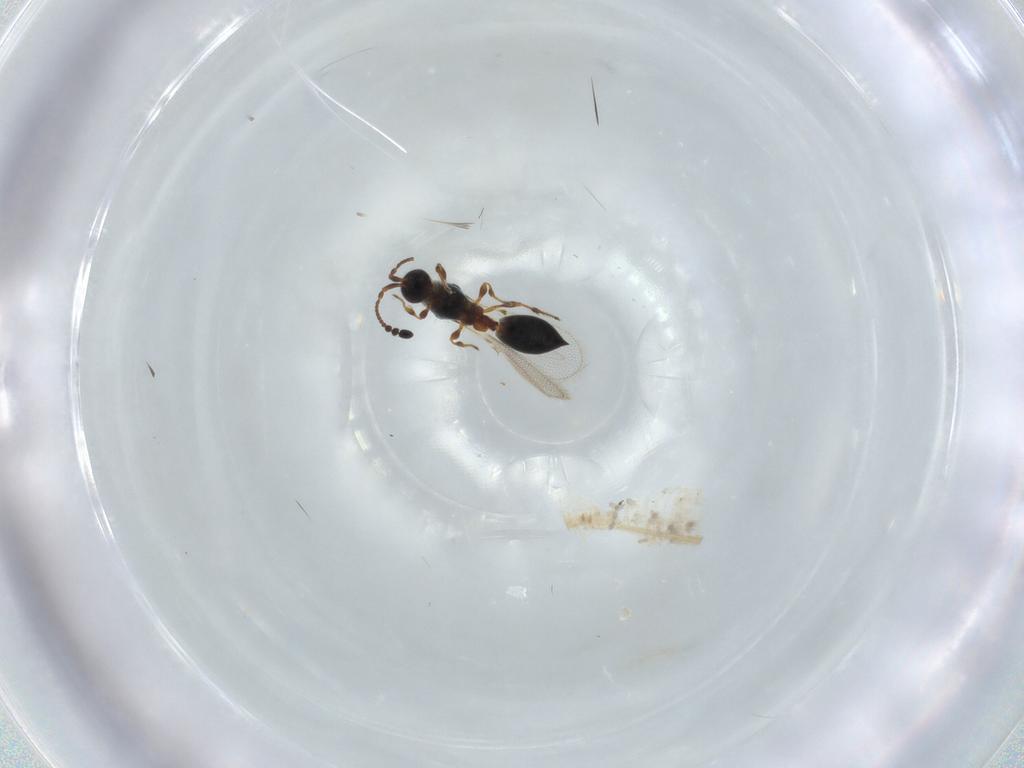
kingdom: Animalia
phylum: Arthropoda
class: Insecta
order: Hymenoptera
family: Diapriidae
